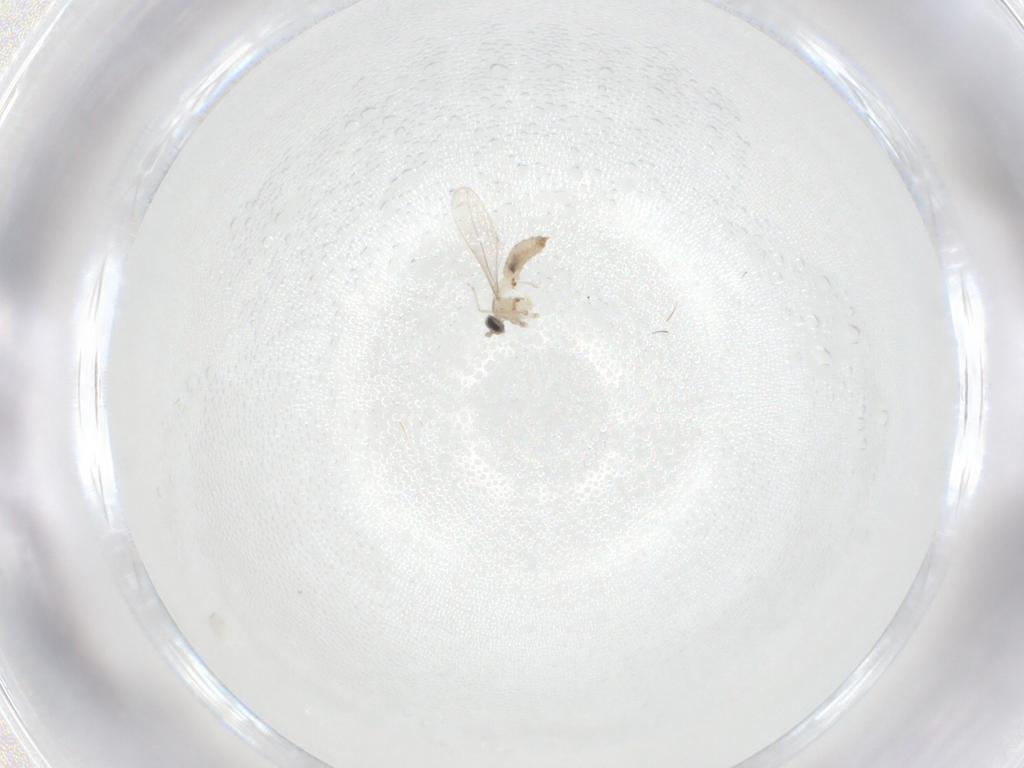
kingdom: Animalia
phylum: Arthropoda
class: Insecta
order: Diptera
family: Cecidomyiidae
